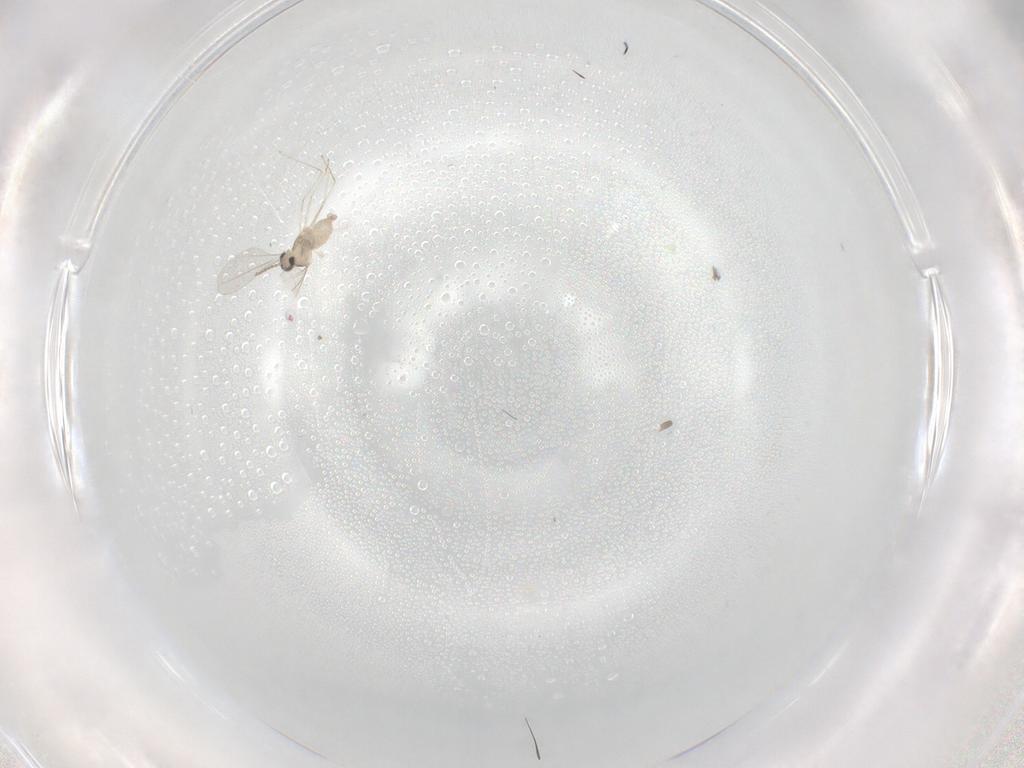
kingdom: Animalia
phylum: Arthropoda
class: Insecta
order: Diptera
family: Cecidomyiidae
